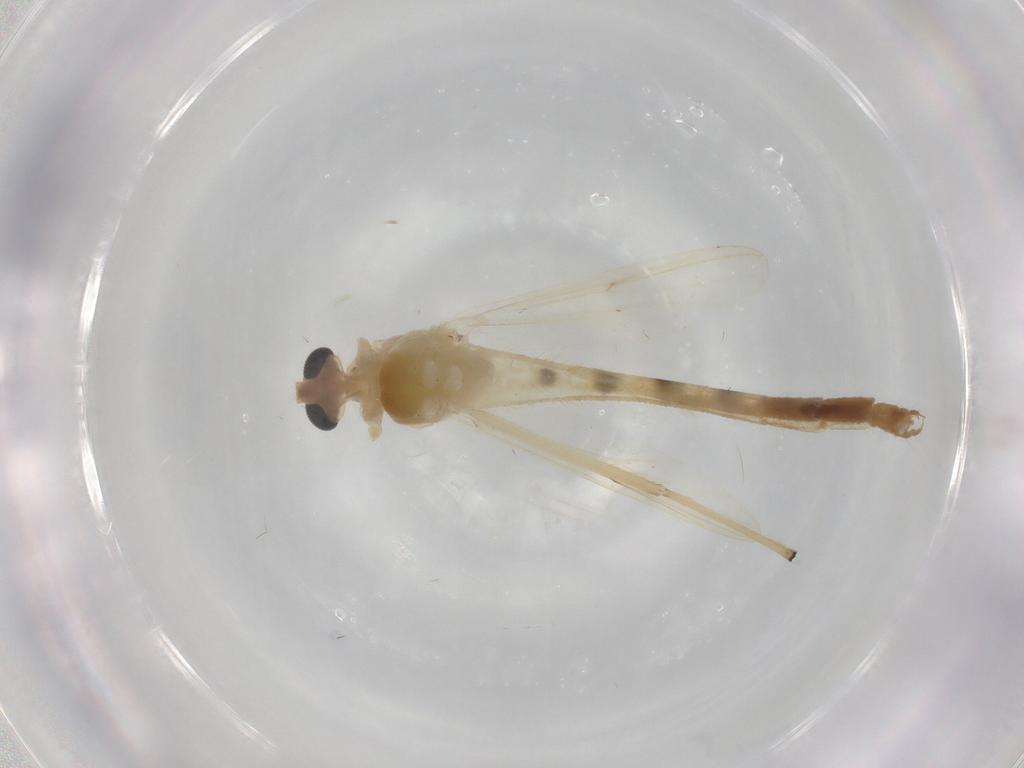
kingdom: Animalia
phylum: Arthropoda
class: Insecta
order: Diptera
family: Chironomidae
